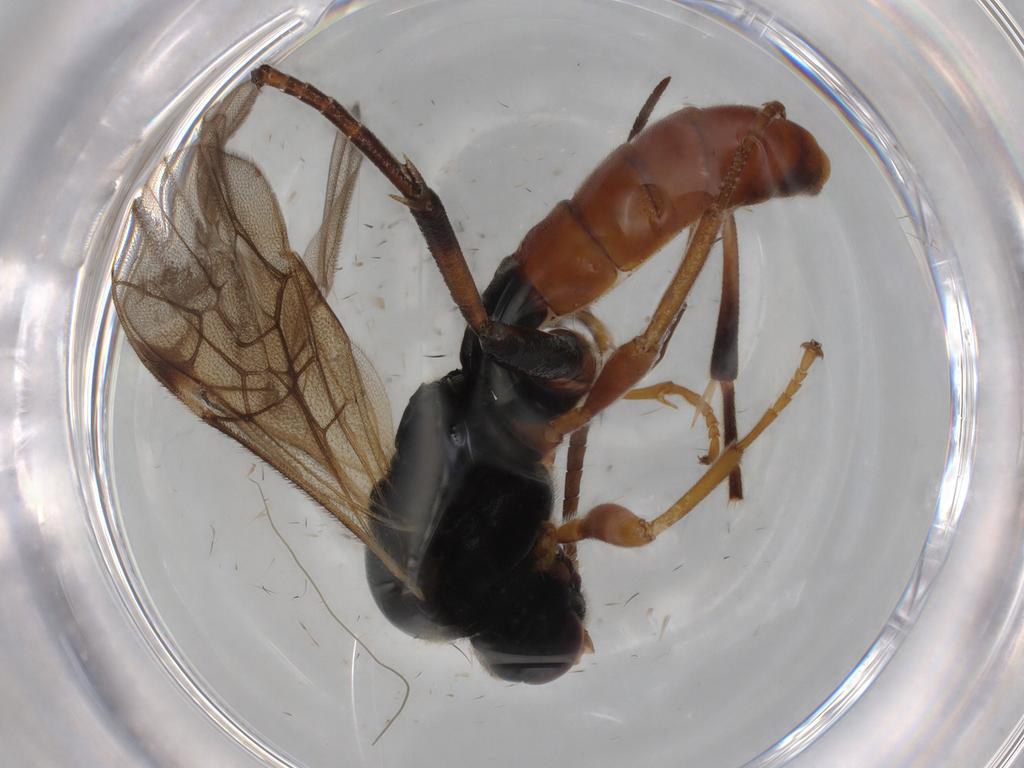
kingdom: Animalia
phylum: Arthropoda
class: Insecta
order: Hymenoptera
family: Ichneumonidae
